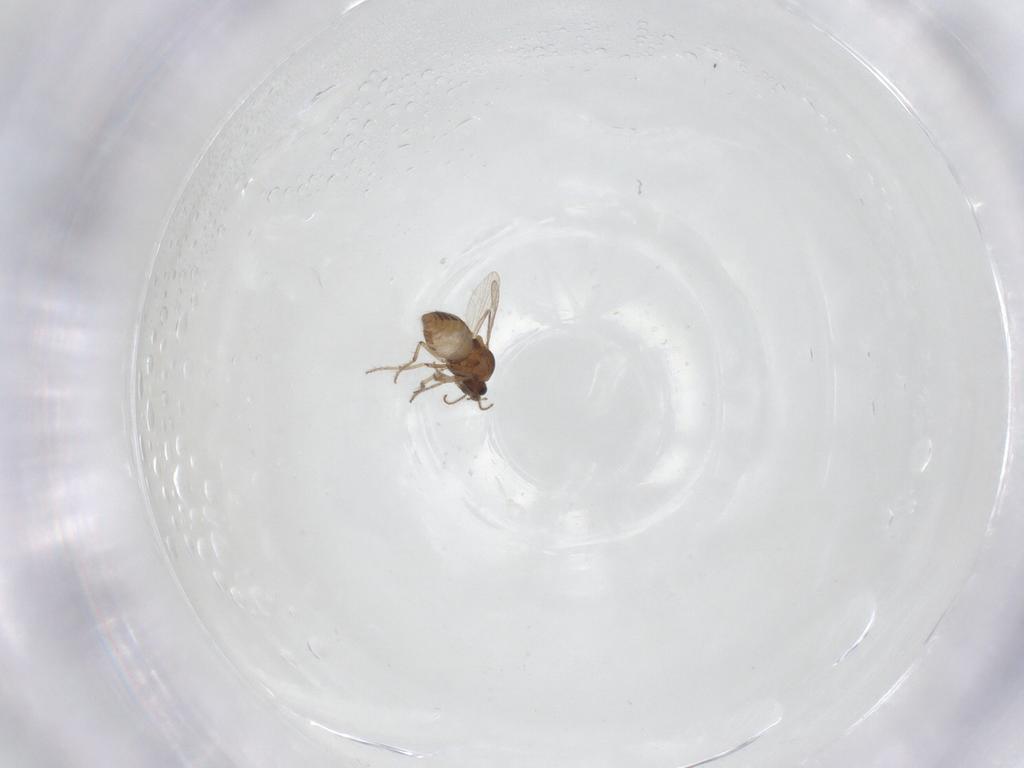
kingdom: Animalia
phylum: Arthropoda
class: Insecta
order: Diptera
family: Ceratopogonidae
